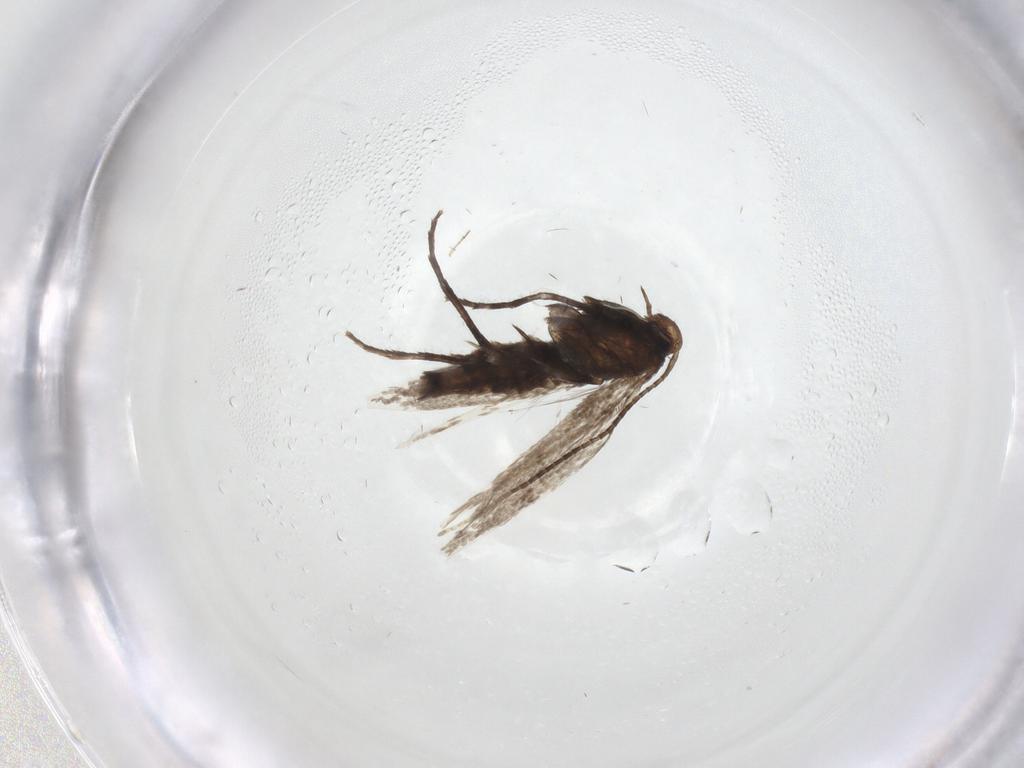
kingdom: Animalia
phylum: Arthropoda
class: Insecta
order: Lepidoptera
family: Gracillariidae
